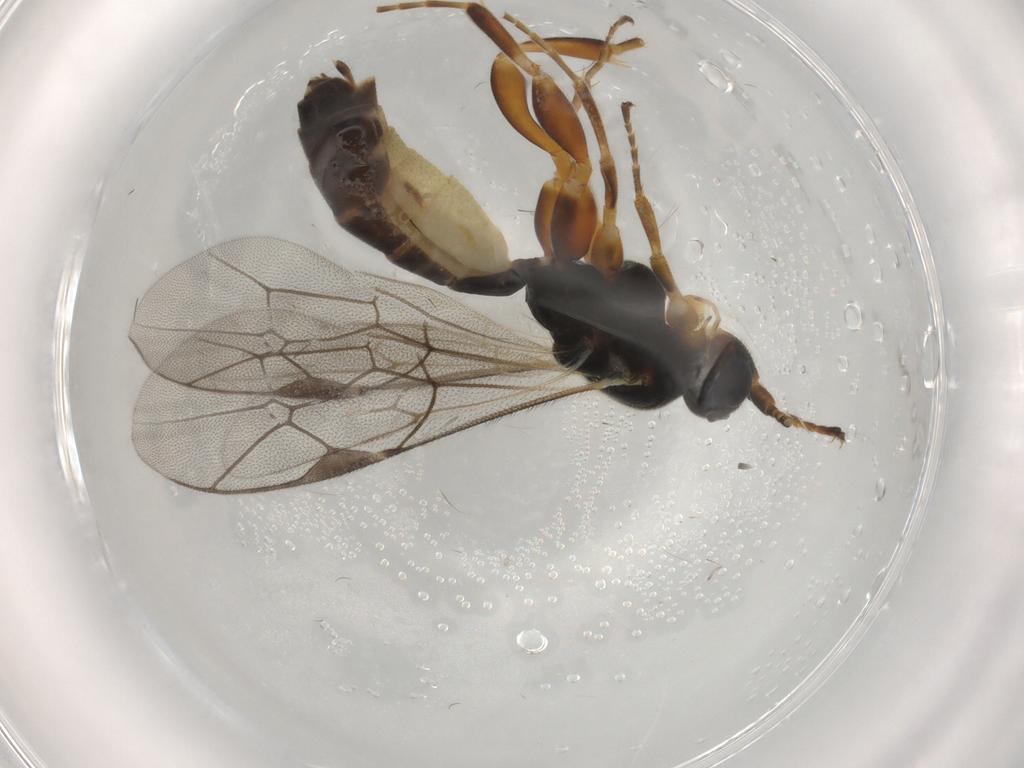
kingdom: Animalia
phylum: Arthropoda
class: Insecta
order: Hymenoptera
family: Ichneumonidae
